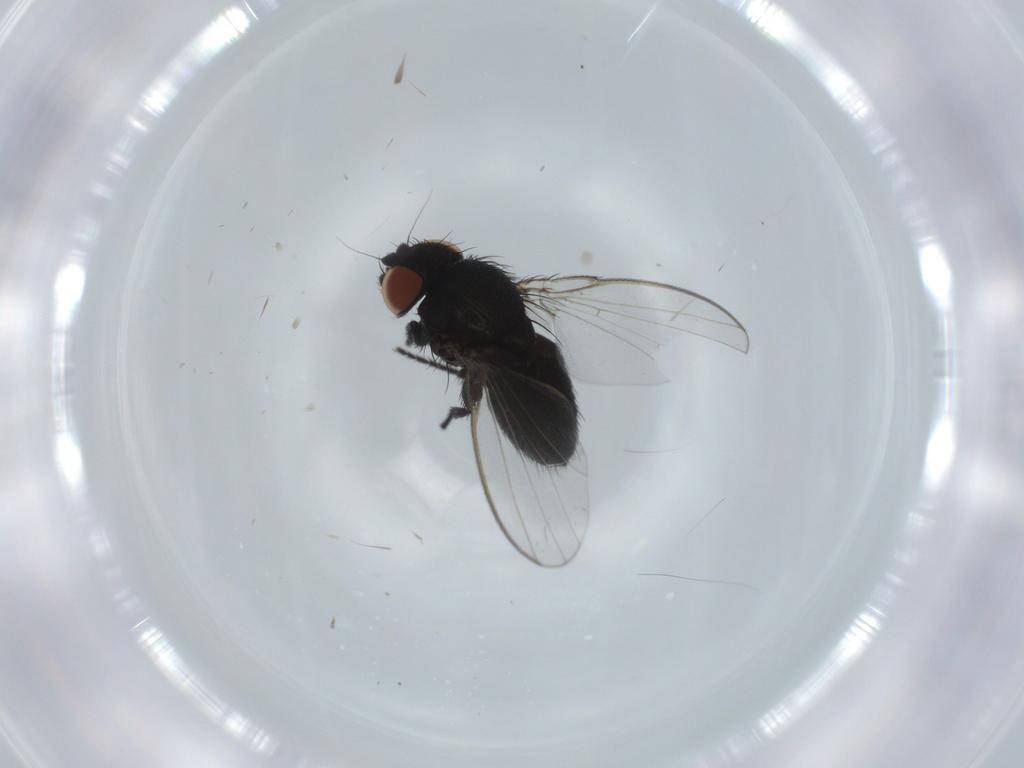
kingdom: Animalia
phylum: Arthropoda
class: Insecta
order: Diptera
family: Milichiidae
